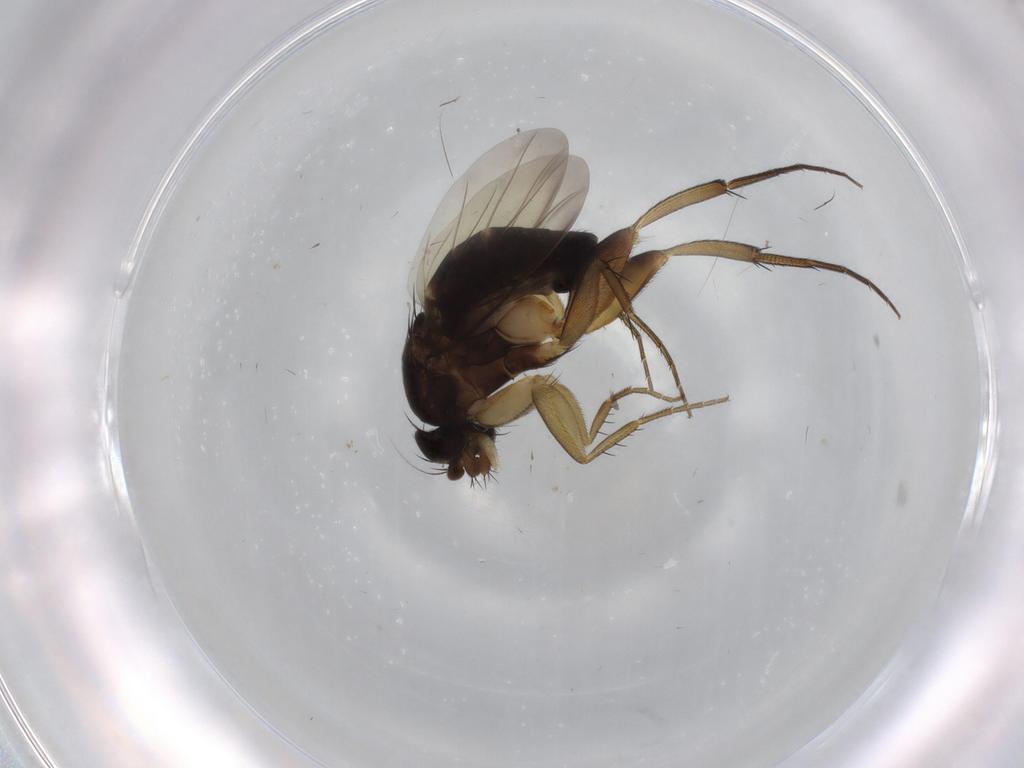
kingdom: Animalia
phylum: Arthropoda
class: Insecta
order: Diptera
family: Phoridae
